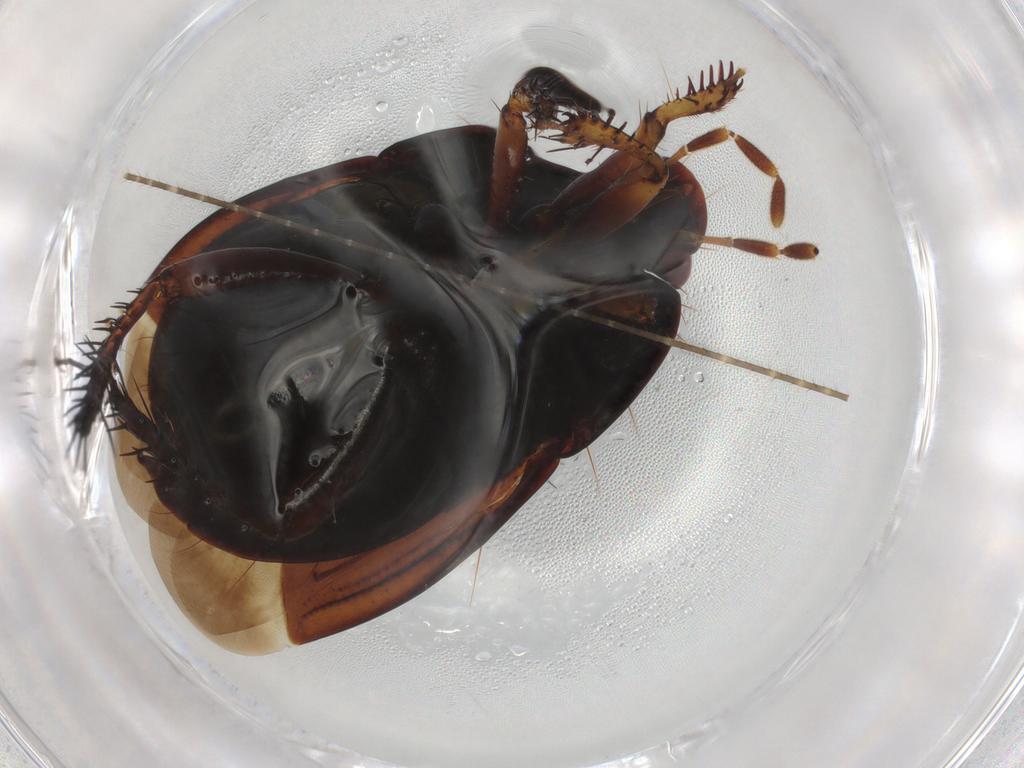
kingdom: Animalia
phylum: Arthropoda
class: Insecta
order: Hemiptera
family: Cydnidae
